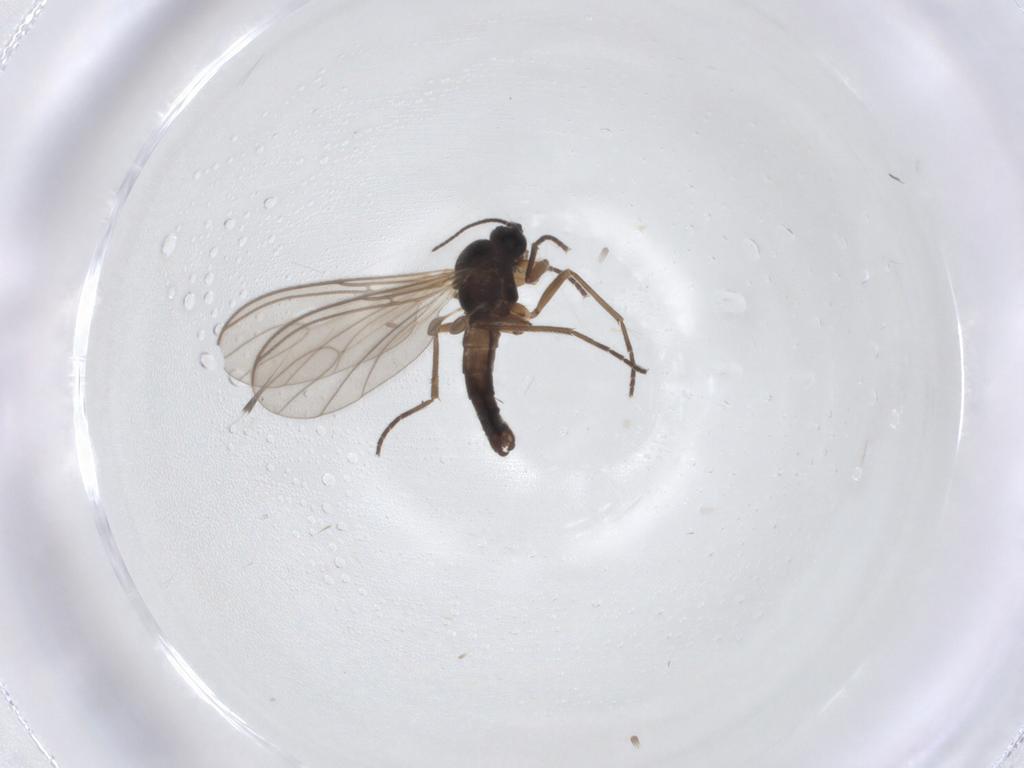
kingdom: Animalia
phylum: Arthropoda
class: Insecta
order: Diptera
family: Sciaridae
